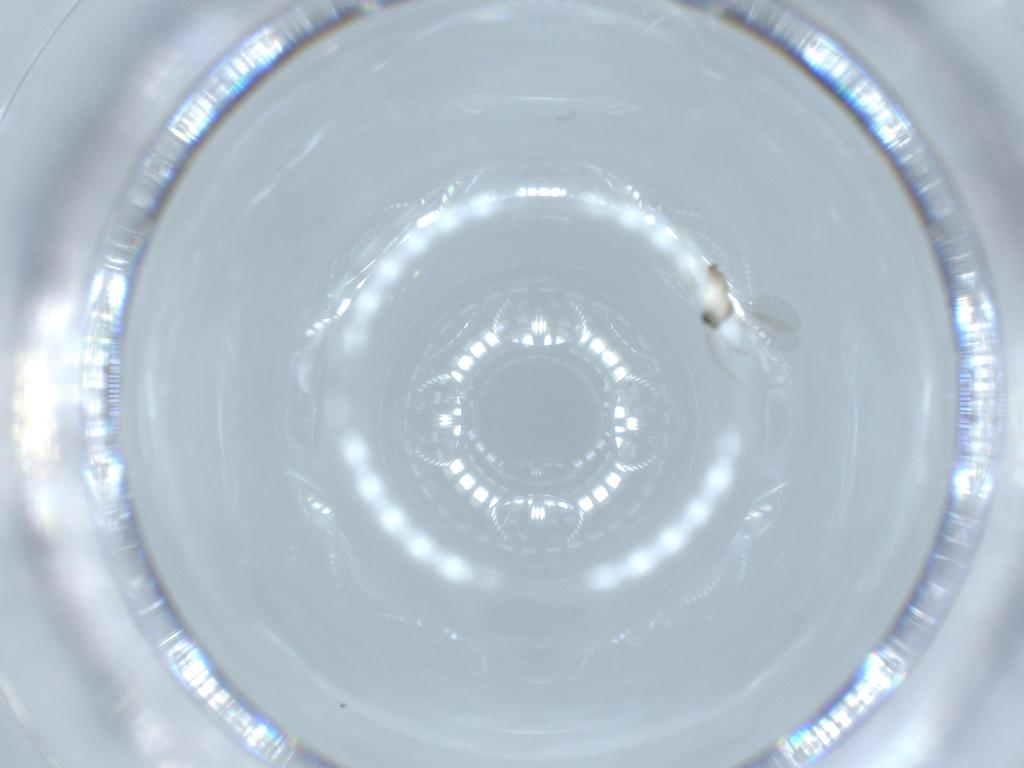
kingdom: Animalia
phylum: Arthropoda
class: Insecta
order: Diptera
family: Cecidomyiidae
